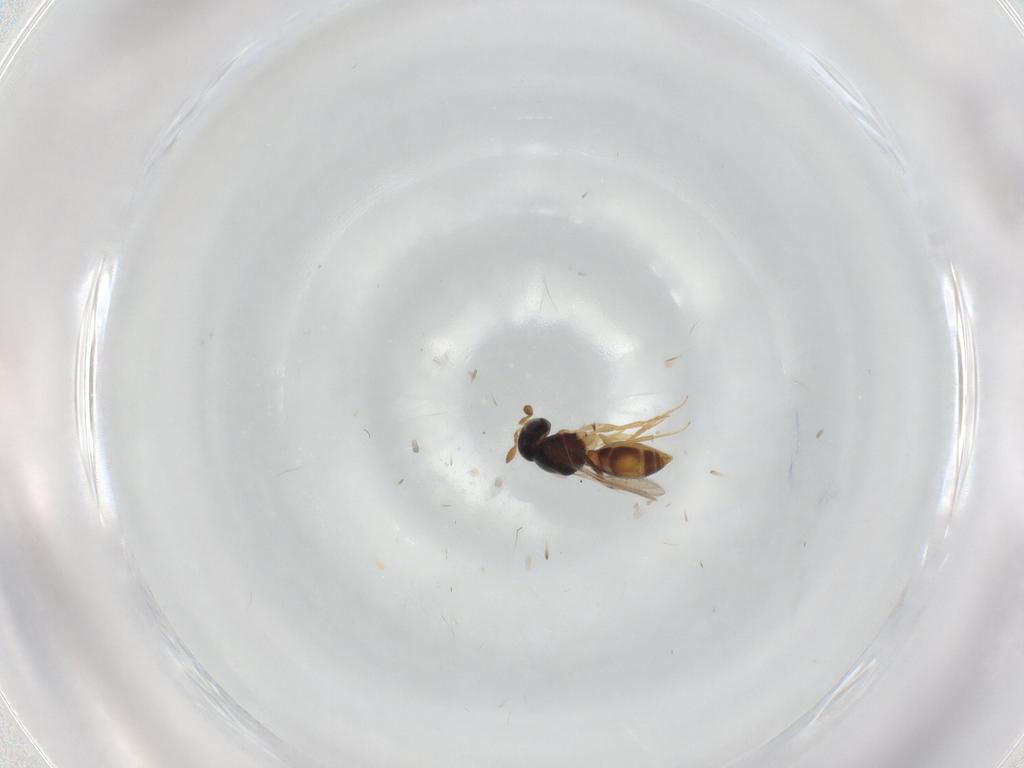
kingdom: Animalia
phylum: Arthropoda
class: Insecta
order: Hymenoptera
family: Scelionidae
